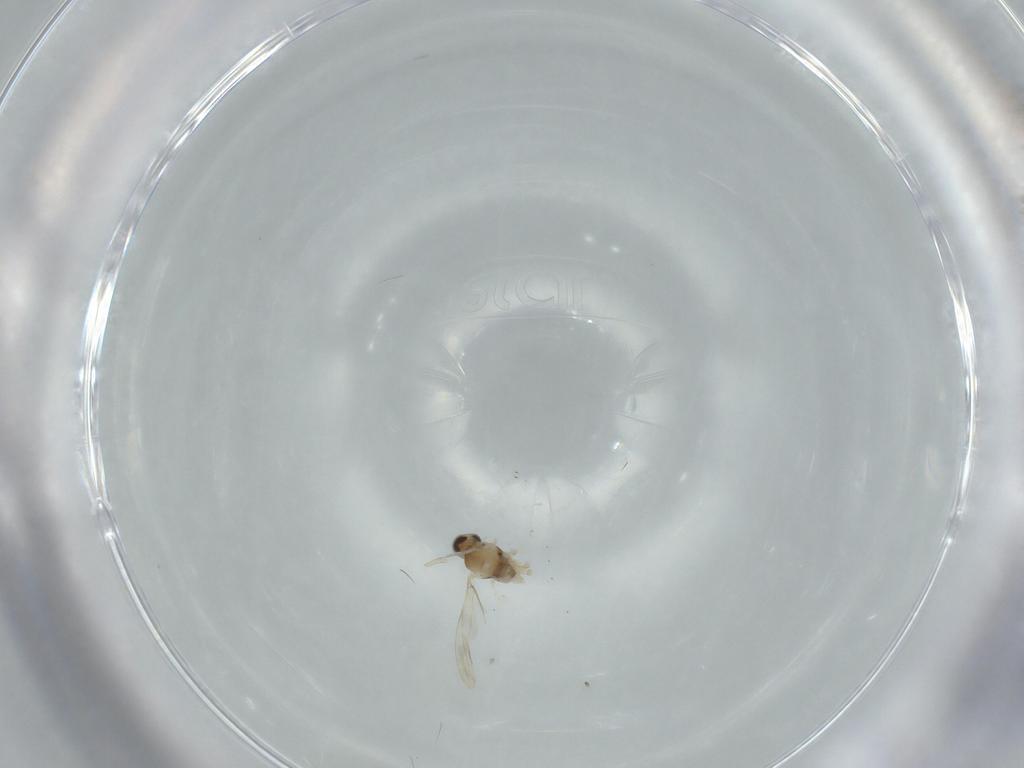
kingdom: Animalia
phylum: Arthropoda
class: Insecta
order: Diptera
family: Cecidomyiidae
